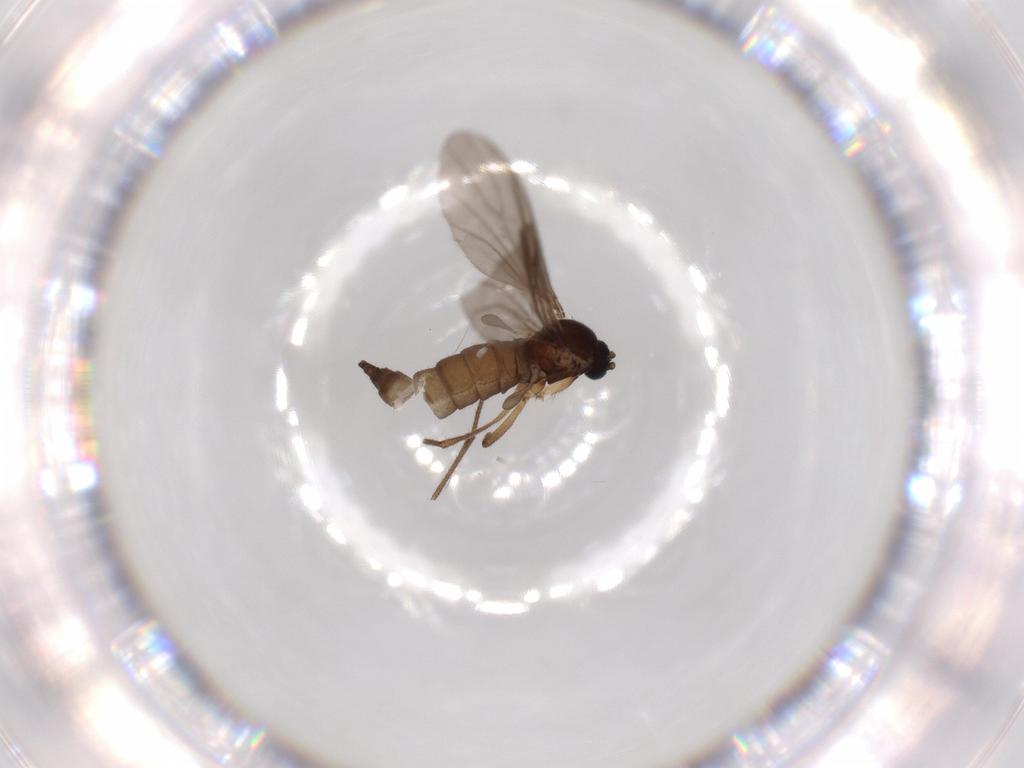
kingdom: Animalia
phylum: Arthropoda
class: Insecta
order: Diptera
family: Sciaridae
